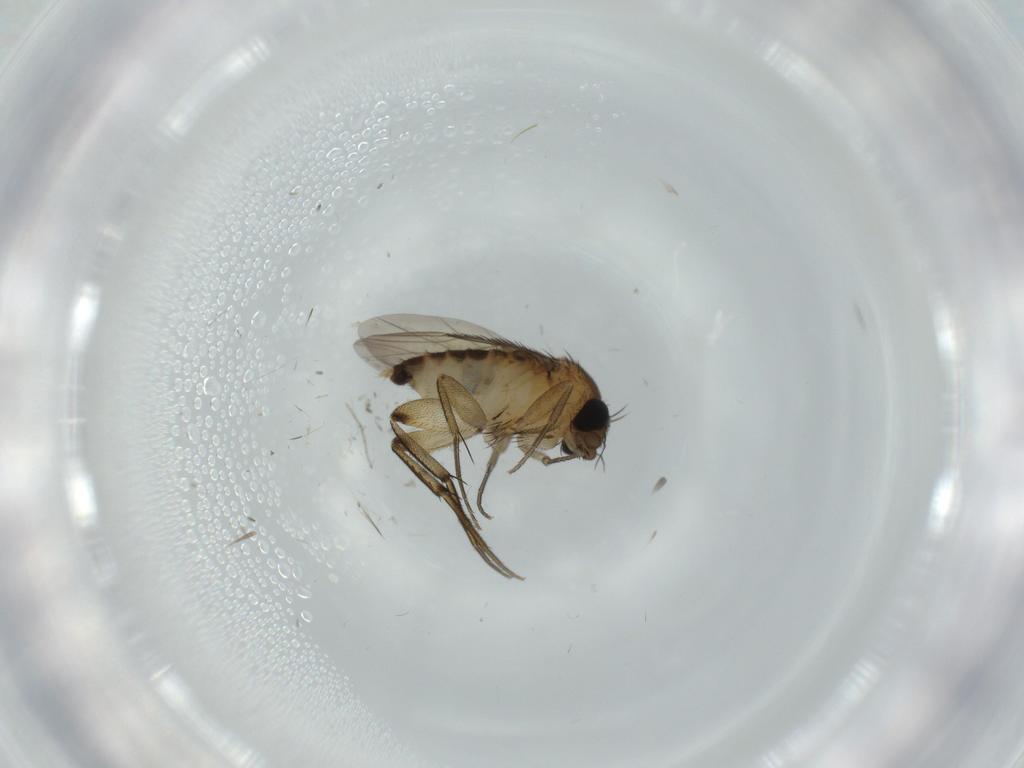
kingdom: Animalia
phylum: Arthropoda
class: Insecta
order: Diptera
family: Phoridae
